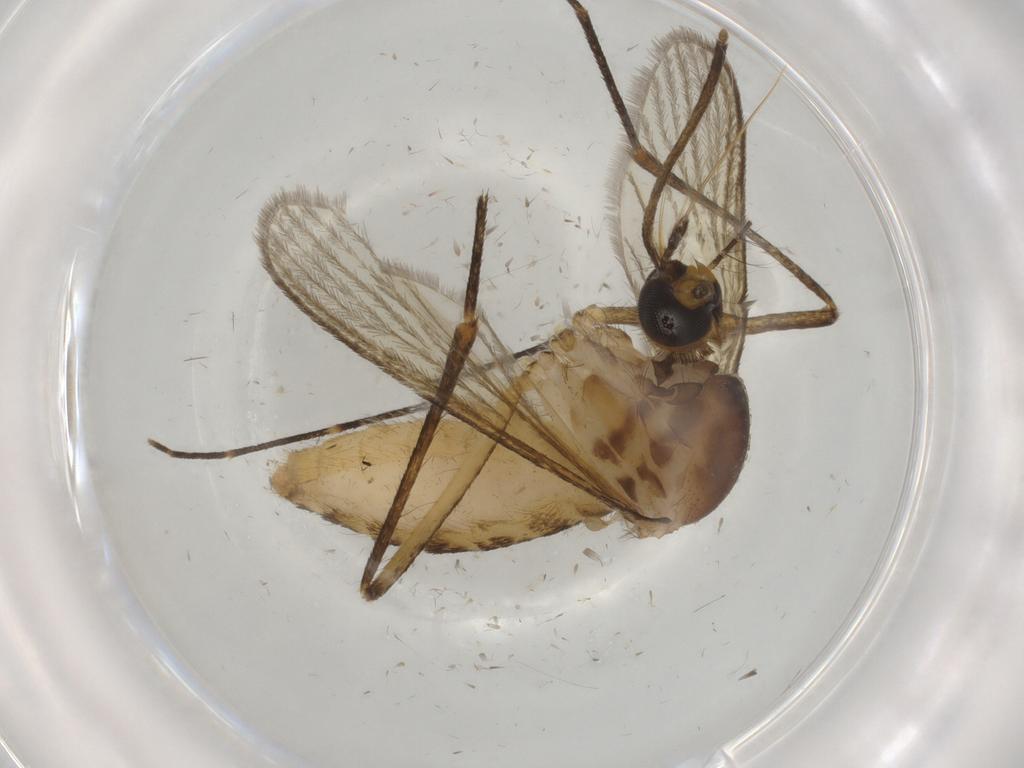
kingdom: Animalia
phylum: Arthropoda
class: Insecta
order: Diptera
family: Culicidae
